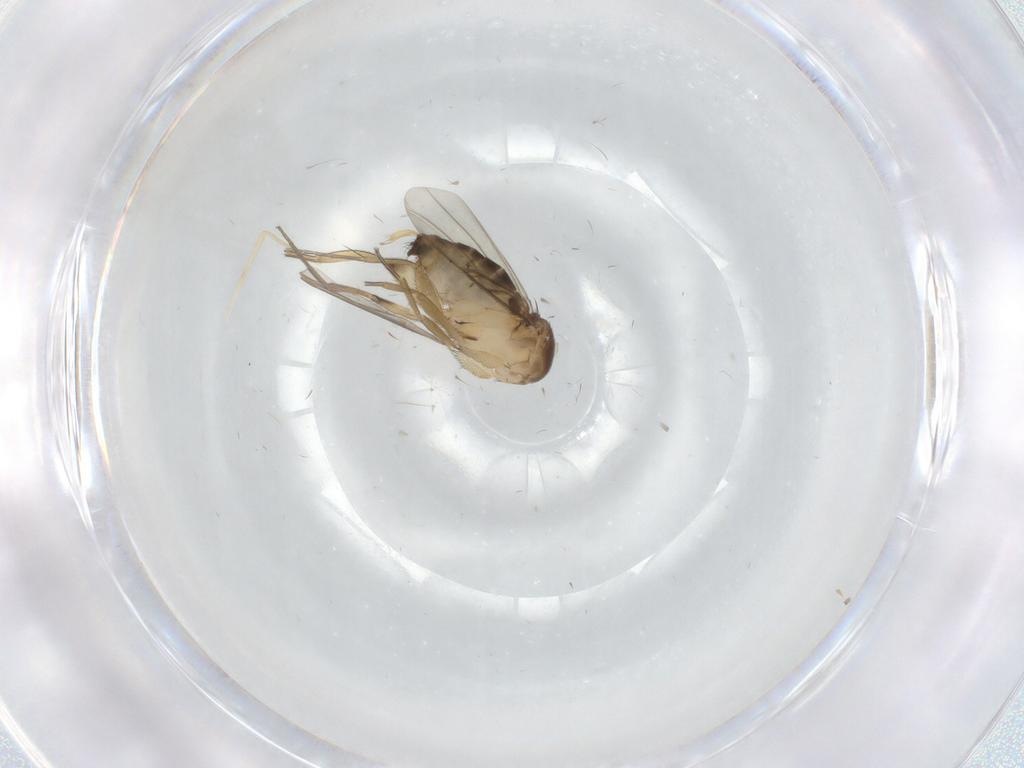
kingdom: Animalia
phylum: Arthropoda
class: Insecta
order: Diptera
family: Phoridae
